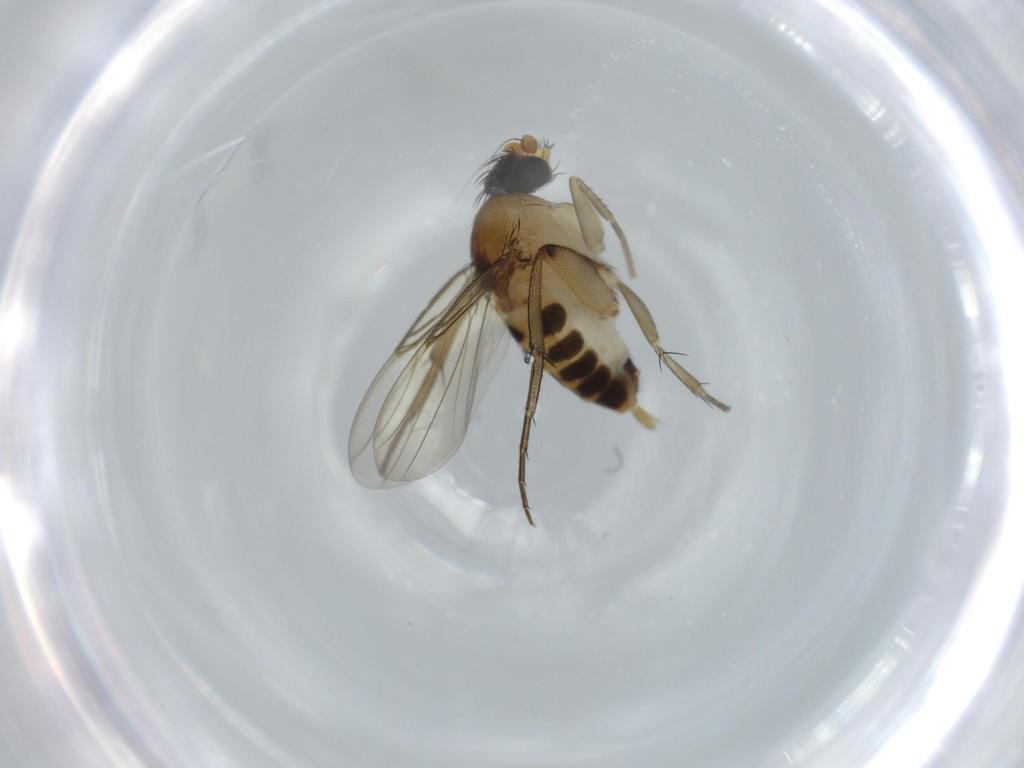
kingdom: Animalia
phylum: Arthropoda
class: Insecta
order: Diptera
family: Phoridae
